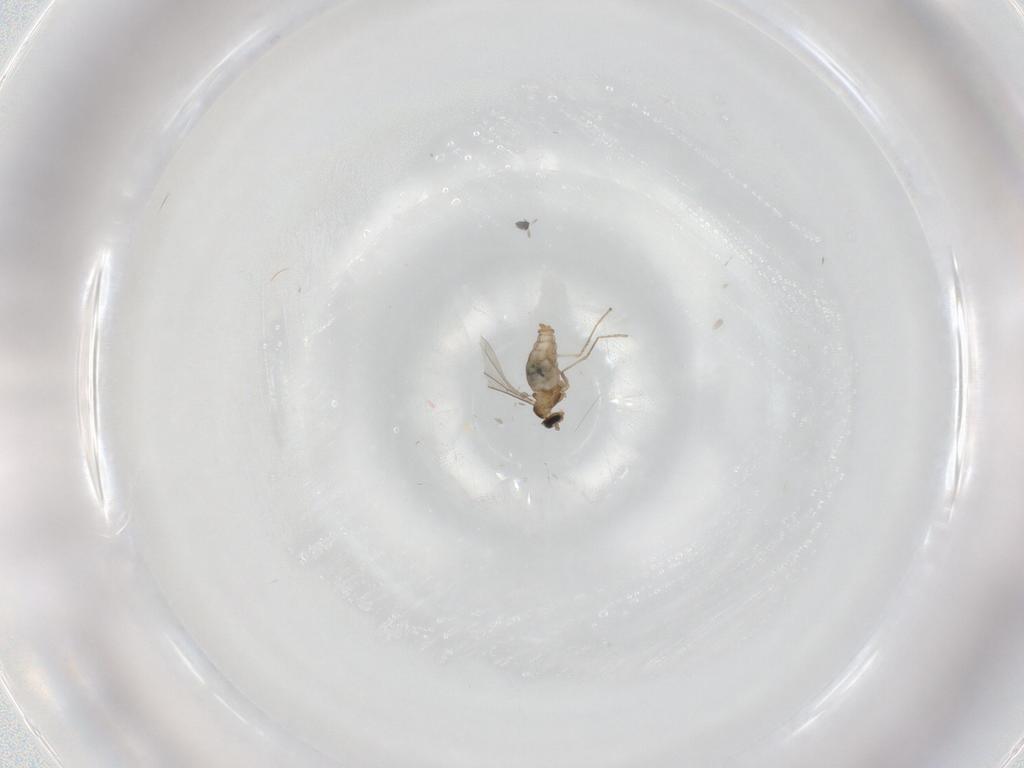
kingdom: Animalia
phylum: Arthropoda
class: Insecta
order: Diptera
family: Chironomidae
